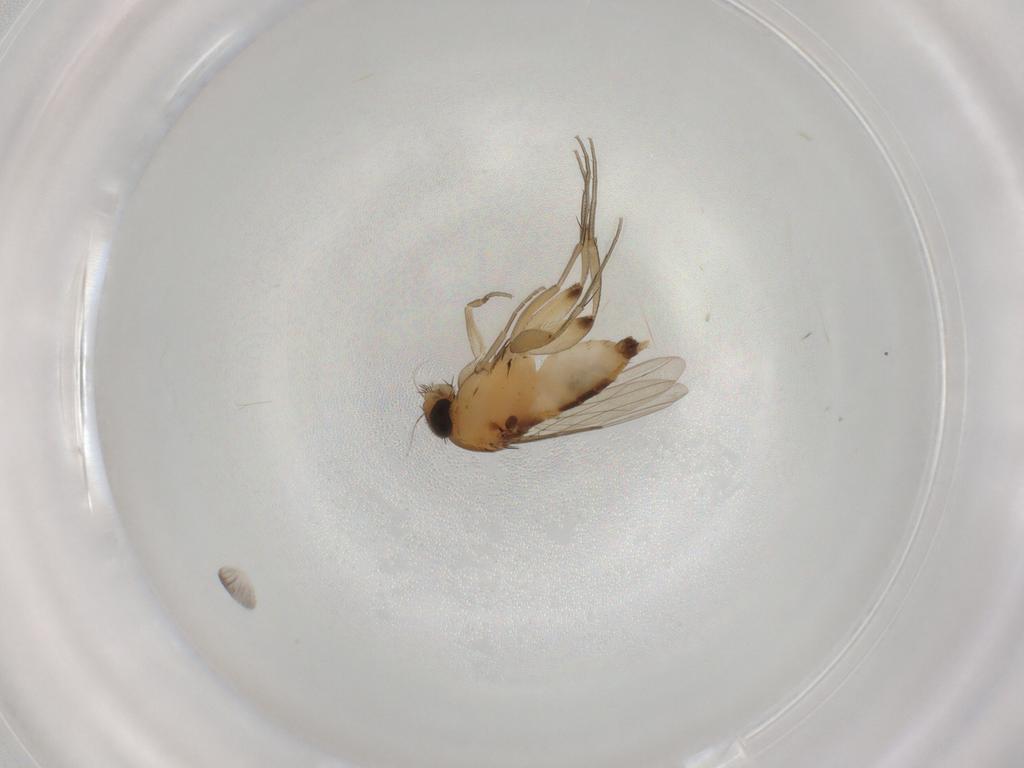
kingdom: Animalia
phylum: Arthropoda
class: Insecta
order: Diptera
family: Phoridae
